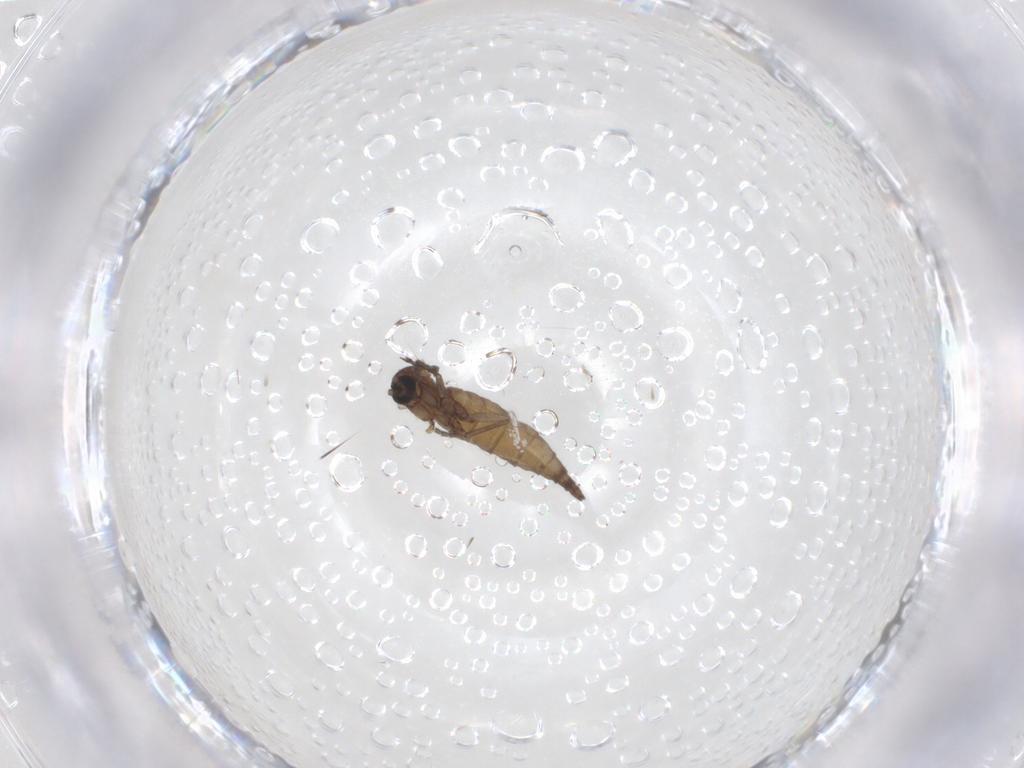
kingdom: Animalia
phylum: Arthropoda
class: Insecta
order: Diptera
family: Sciaridae
